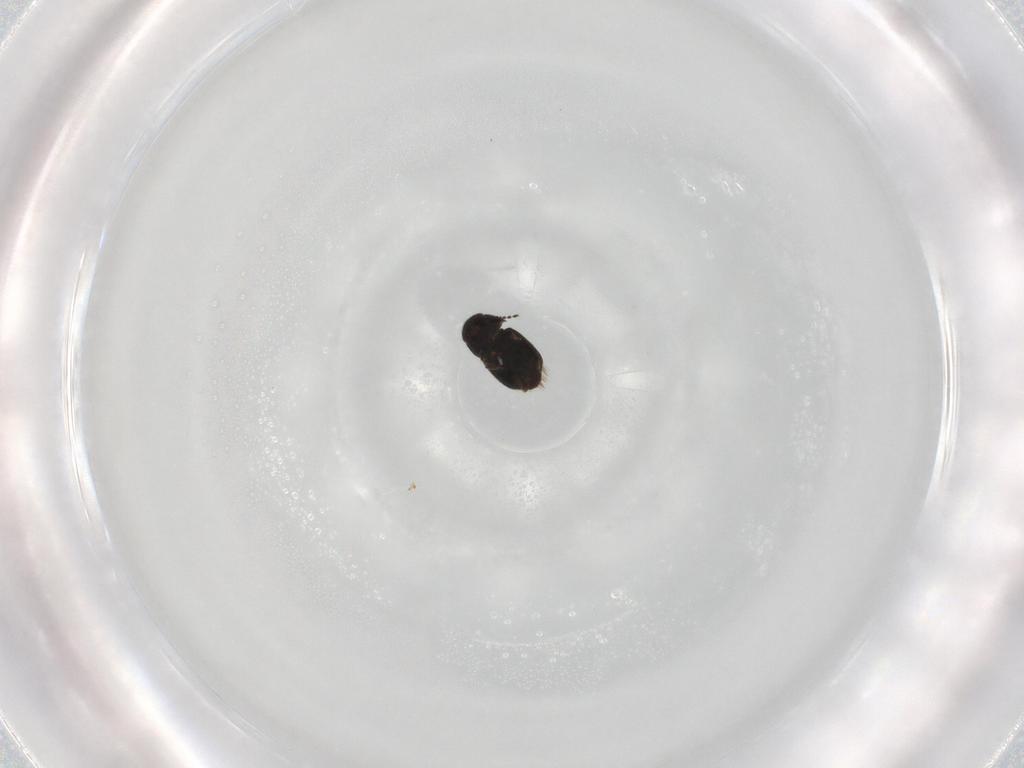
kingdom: Animalia
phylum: Arthropoda
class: Insecta
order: Coleoptera
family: Ptiliidae
